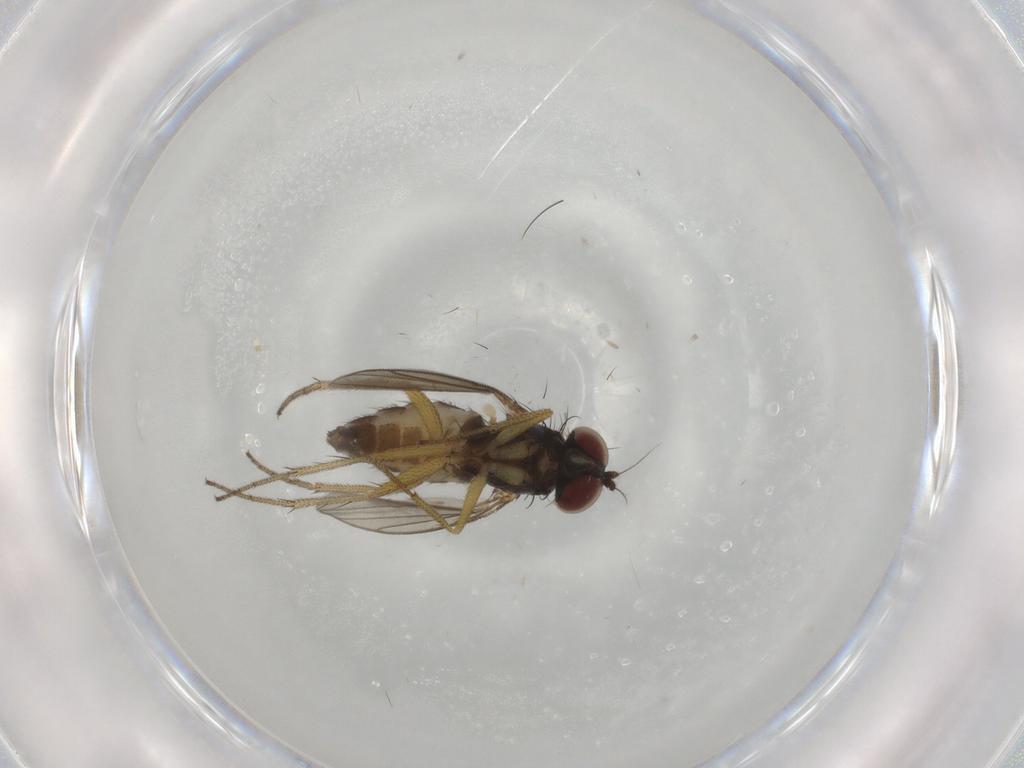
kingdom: Animalia
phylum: Arthropoda
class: Insecta
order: Diptera
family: Dolichopodidae
